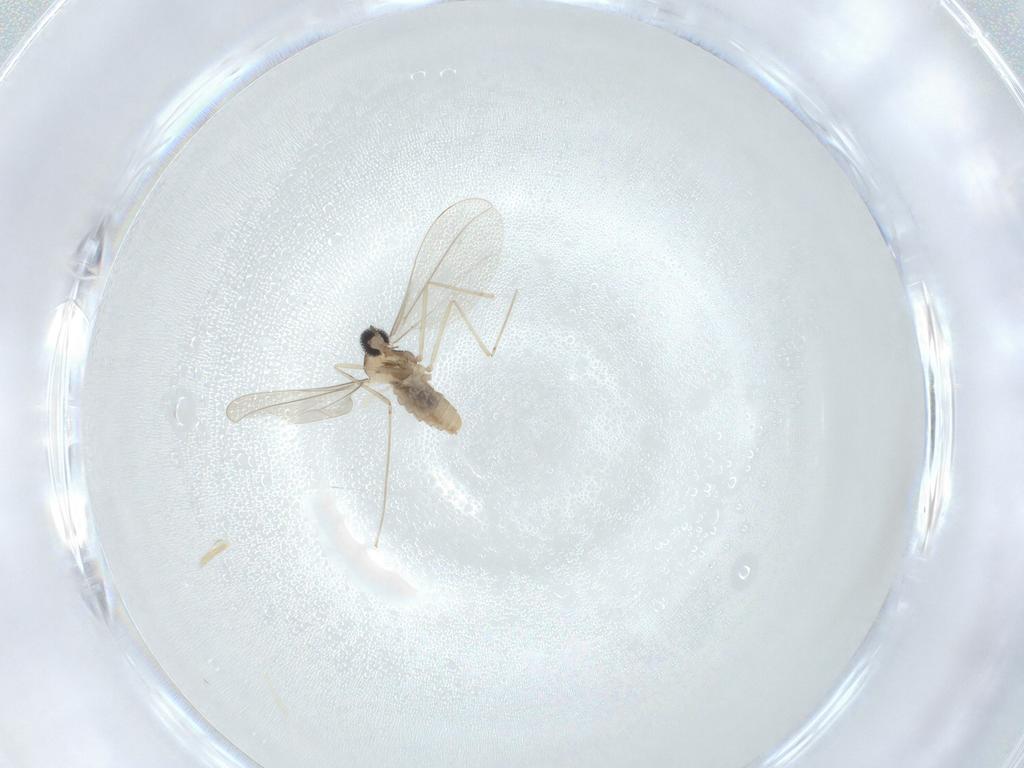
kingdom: Animalia
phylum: Arthropoda
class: Insecta
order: Diptera
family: Cecidomyiidae
